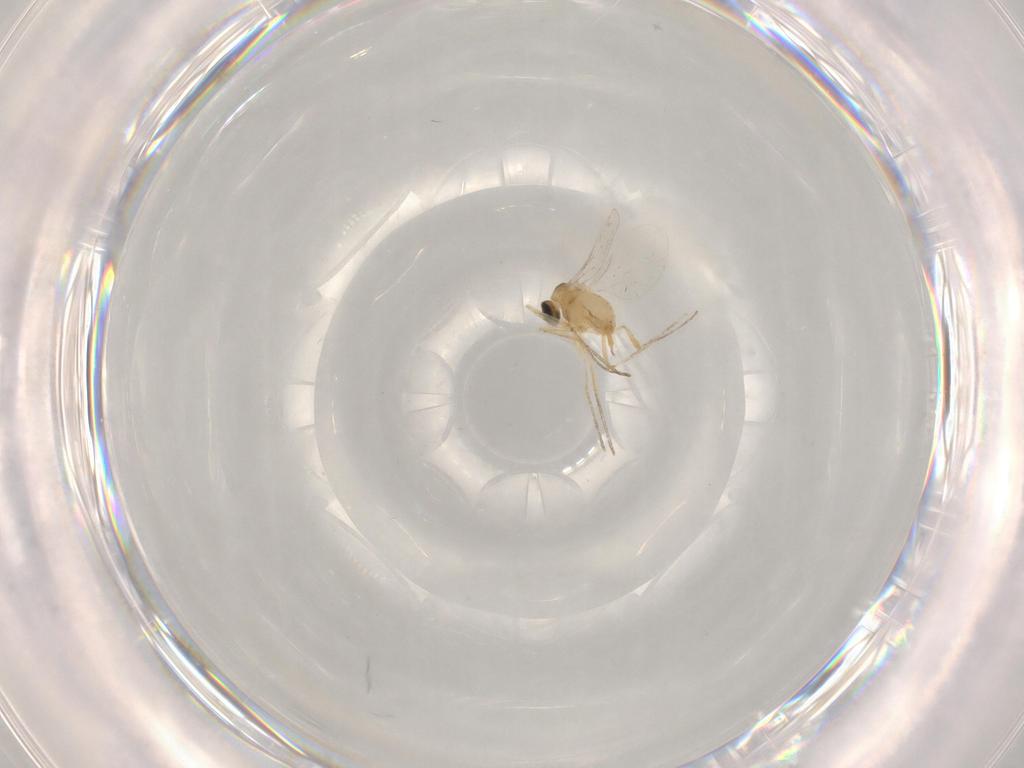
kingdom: Animalia
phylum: Arthropoda
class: Insecta
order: Diptera
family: Cecidomyiidae
